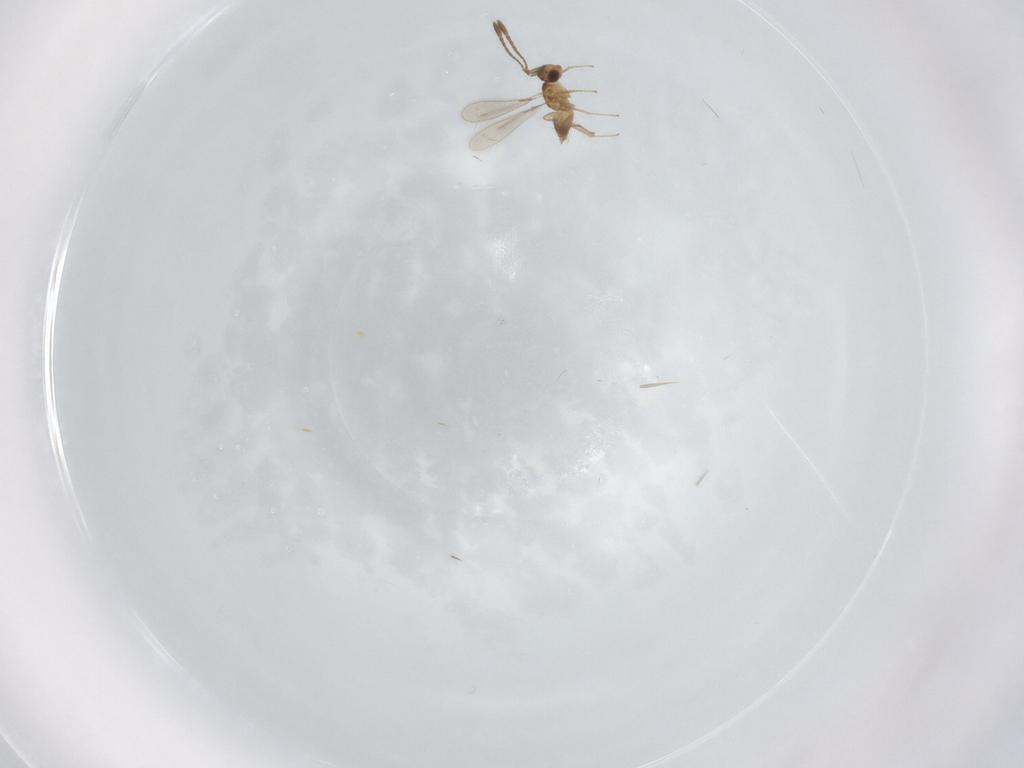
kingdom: Animalia
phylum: Arthropoda
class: Insecta
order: Hymenoptera
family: Mymaridae
